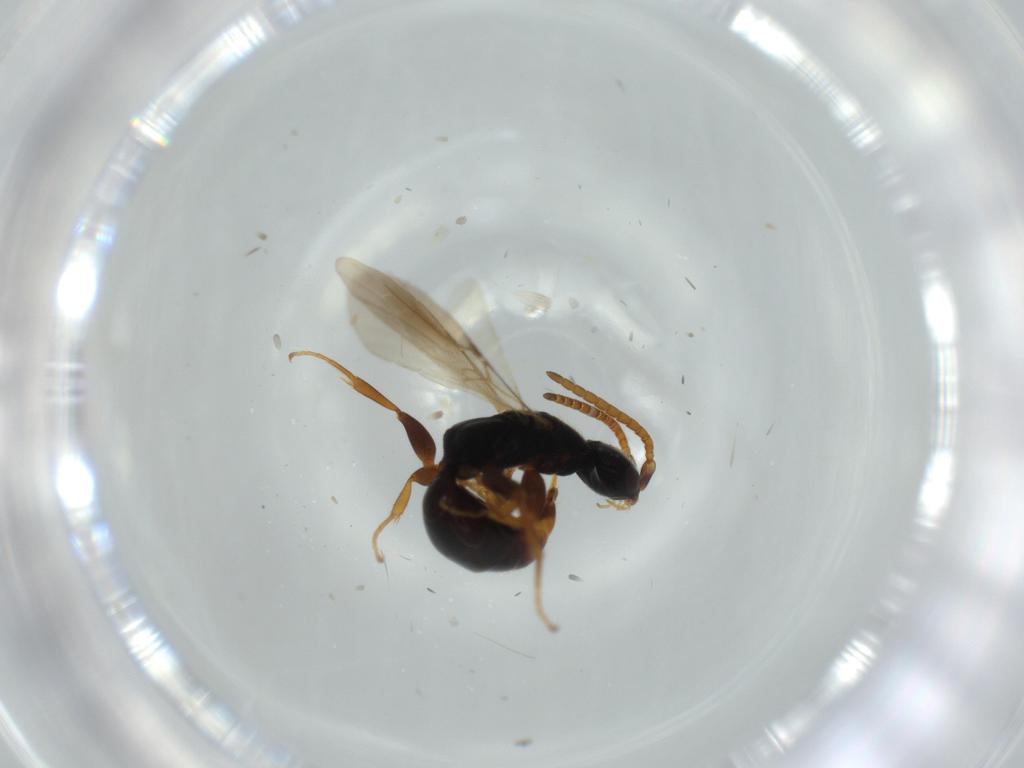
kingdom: Animalia
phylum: Arthropoda
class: Insecta
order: Hymenoptera
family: Bethylidae
